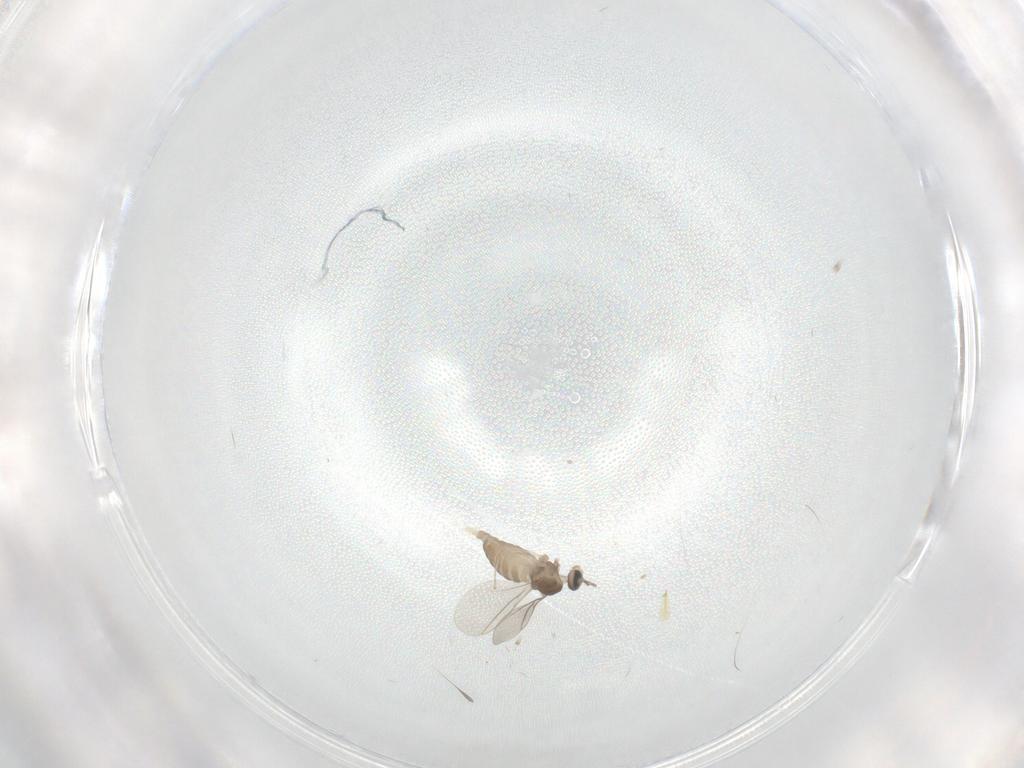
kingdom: Animalia
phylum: Arthropoda
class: Insecta
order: Diptera
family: Cecidomyiidae
